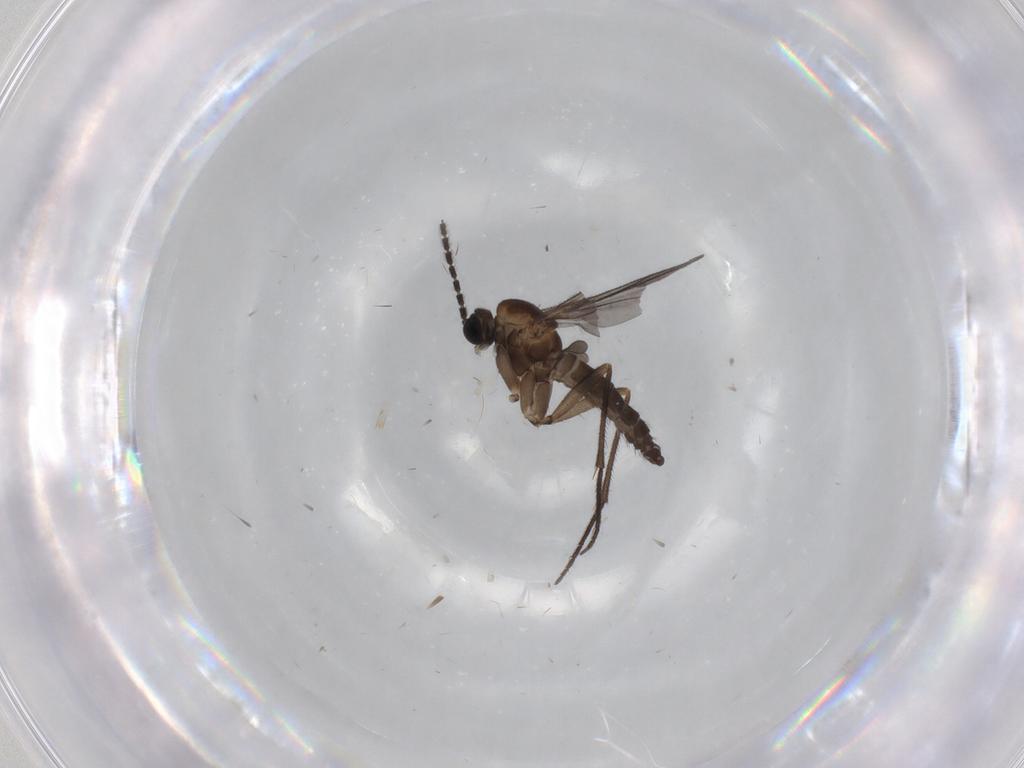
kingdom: Animalia
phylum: Arthropoda
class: Insecta
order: Diptera
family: Sciaridae
